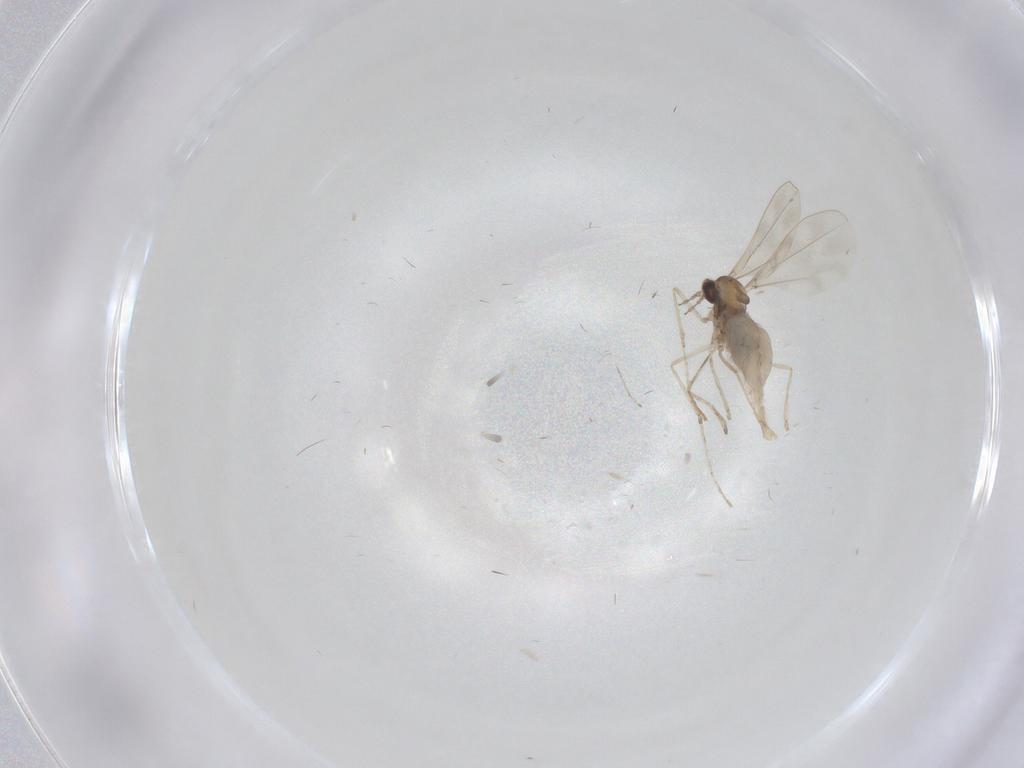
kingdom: Animalia
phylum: Arthropoda
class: Insecta
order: Diptera
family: Cecidomyiidae
